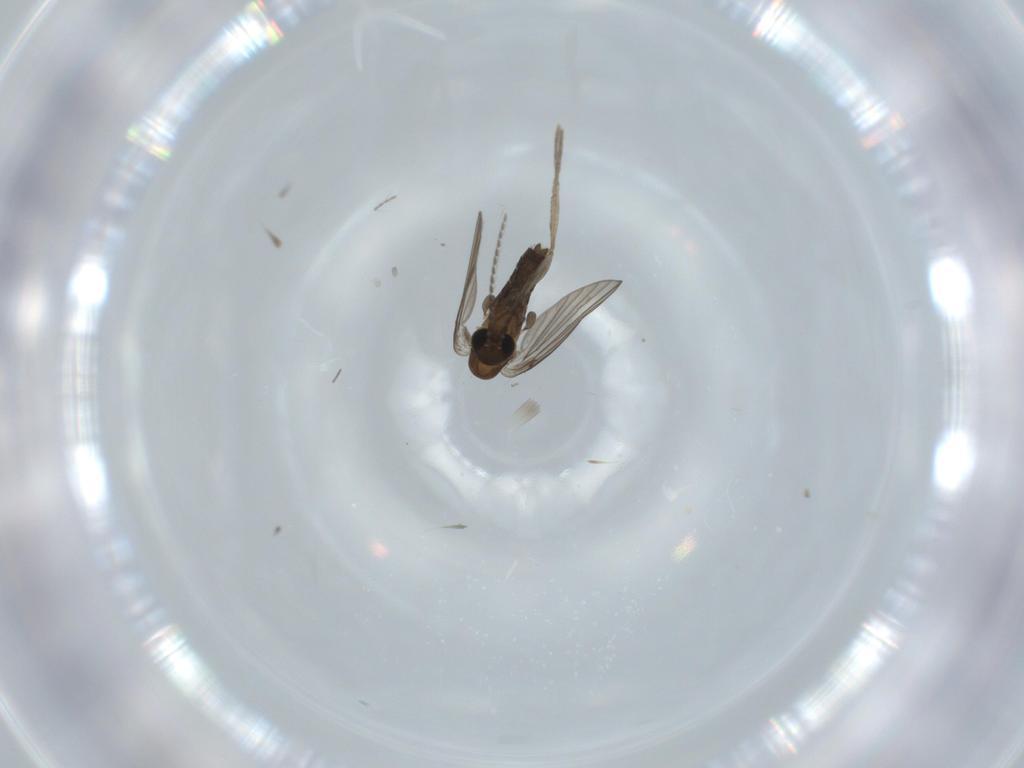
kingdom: Animalia
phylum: Arthropoda
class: Insecta
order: Diptera
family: Psychodidae
